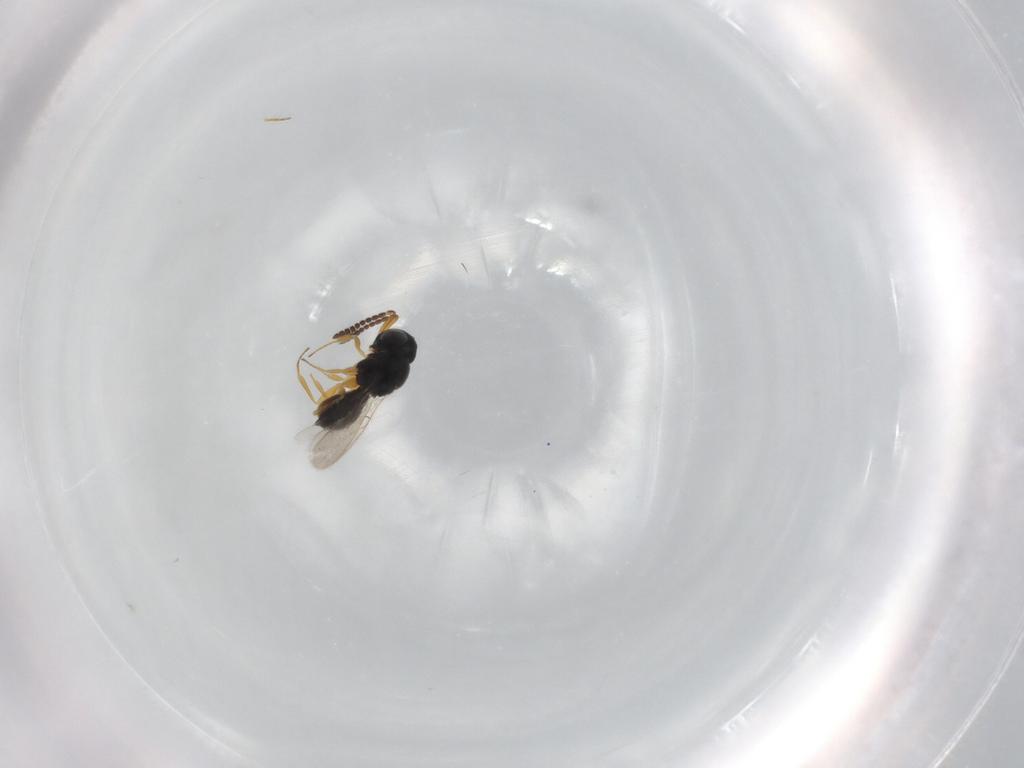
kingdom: Animalia
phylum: Arthropoda
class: Insecta
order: Hymenoptera
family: Scelionidae
